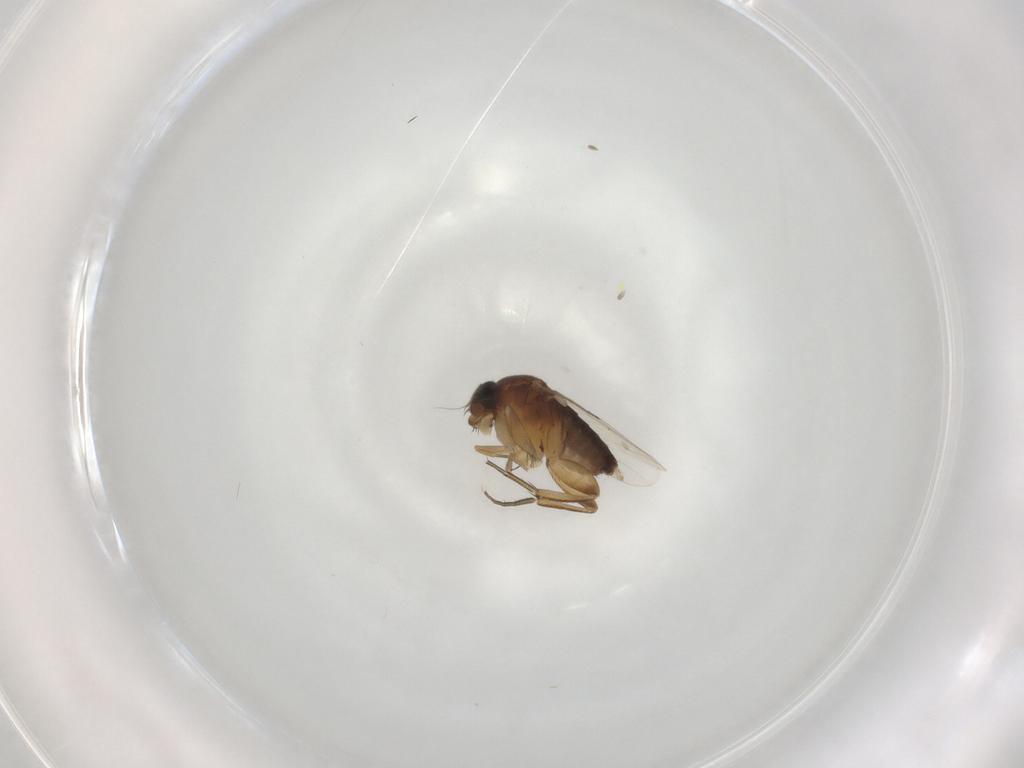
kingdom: Animalia
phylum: Arthropoda
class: Insecta
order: Diptera
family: Phoridae
